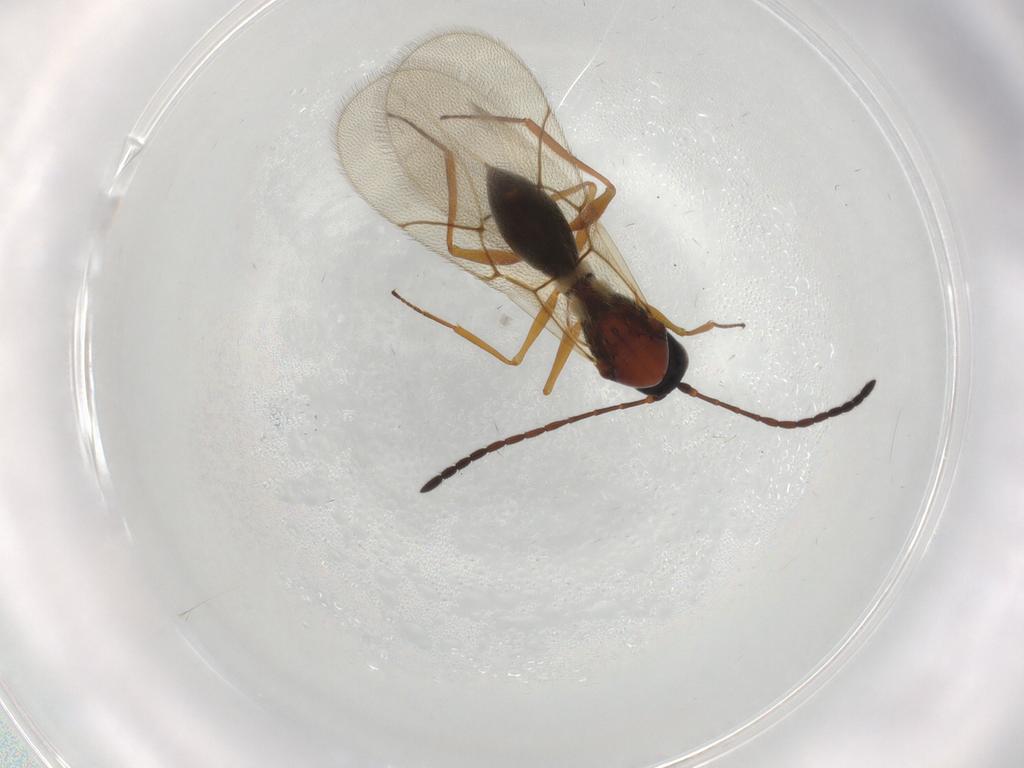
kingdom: Animalia
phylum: Arthropoda
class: Insecta
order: Hymenoptera
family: Figitidae
